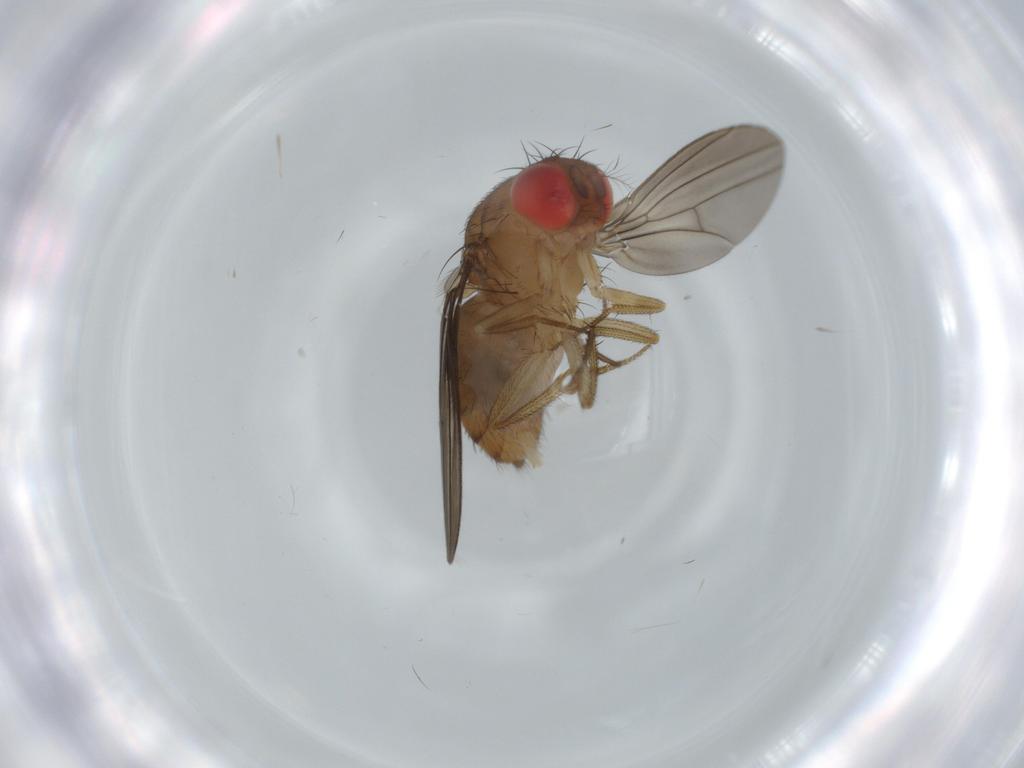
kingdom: Animalia
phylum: Arthropoda
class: Insecta
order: Diptera
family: Sciaridae
